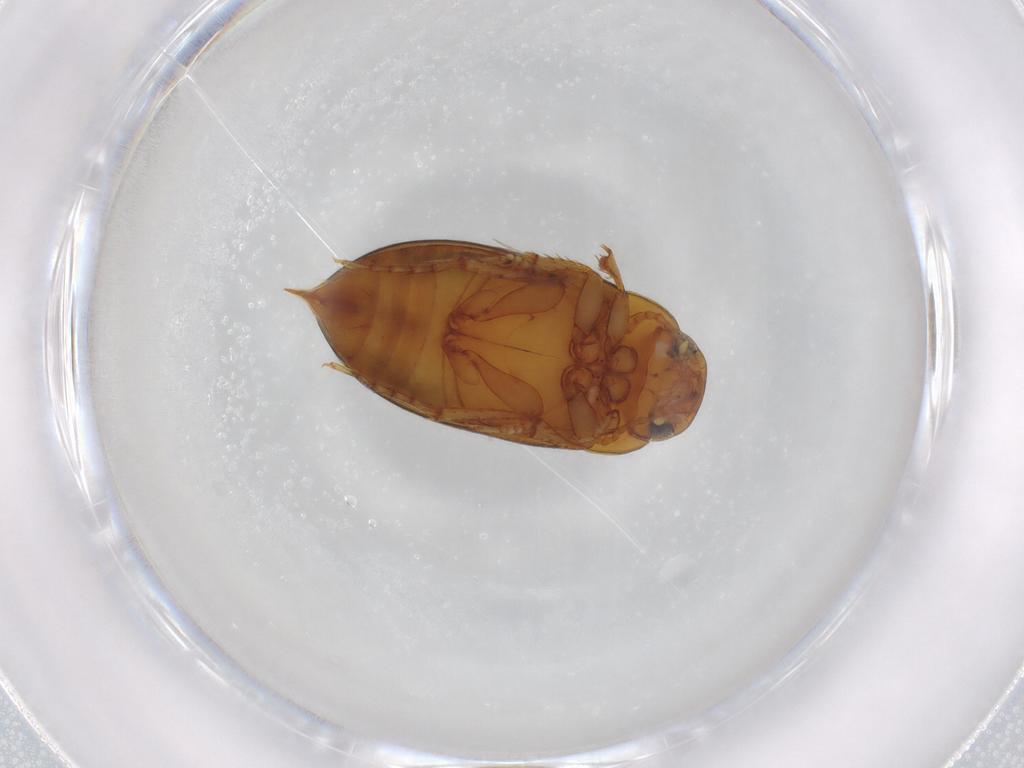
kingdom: Animalia
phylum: Arthropoda
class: Insecta
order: Coleoptera
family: Dytiscidae
